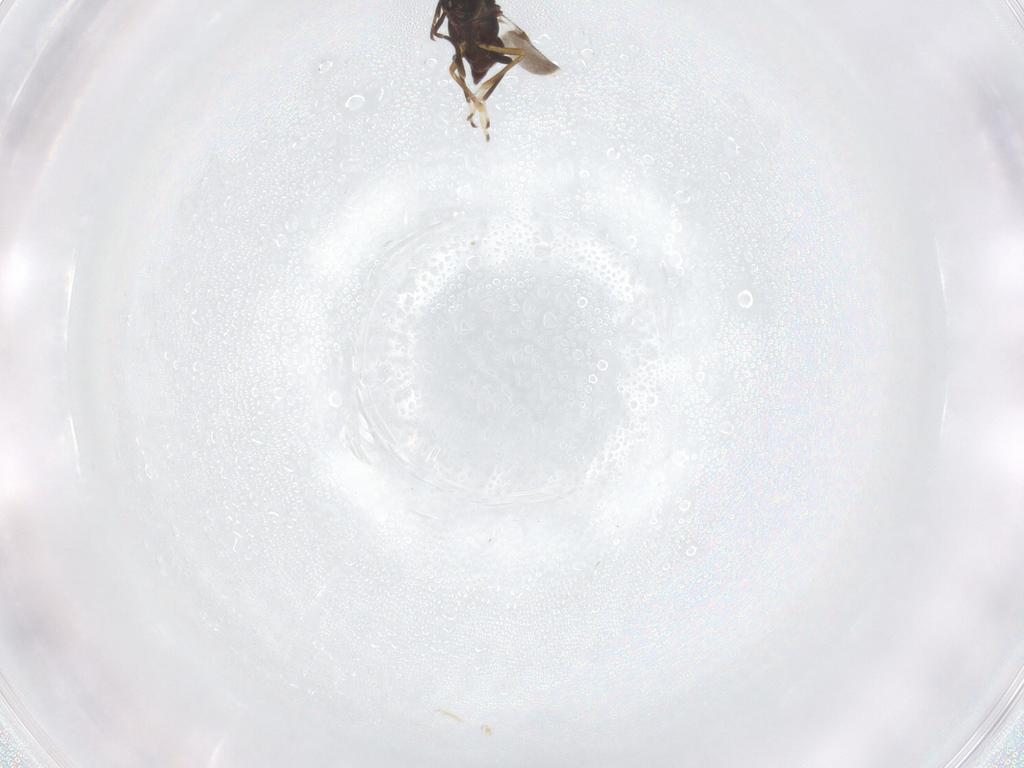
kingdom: Animalia
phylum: Arthropoda
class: Insecta
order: Hymenoptera
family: Encyrtidae
